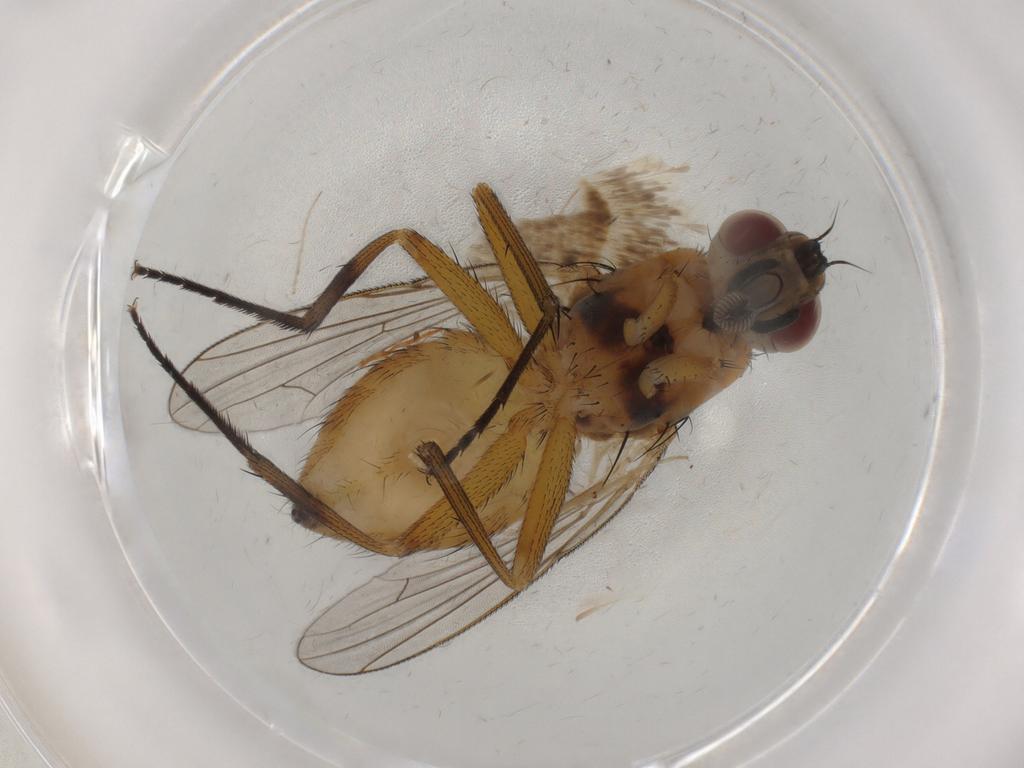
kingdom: Animalia
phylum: Arthropoda
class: Insecta
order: Diptera
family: Muscidae
